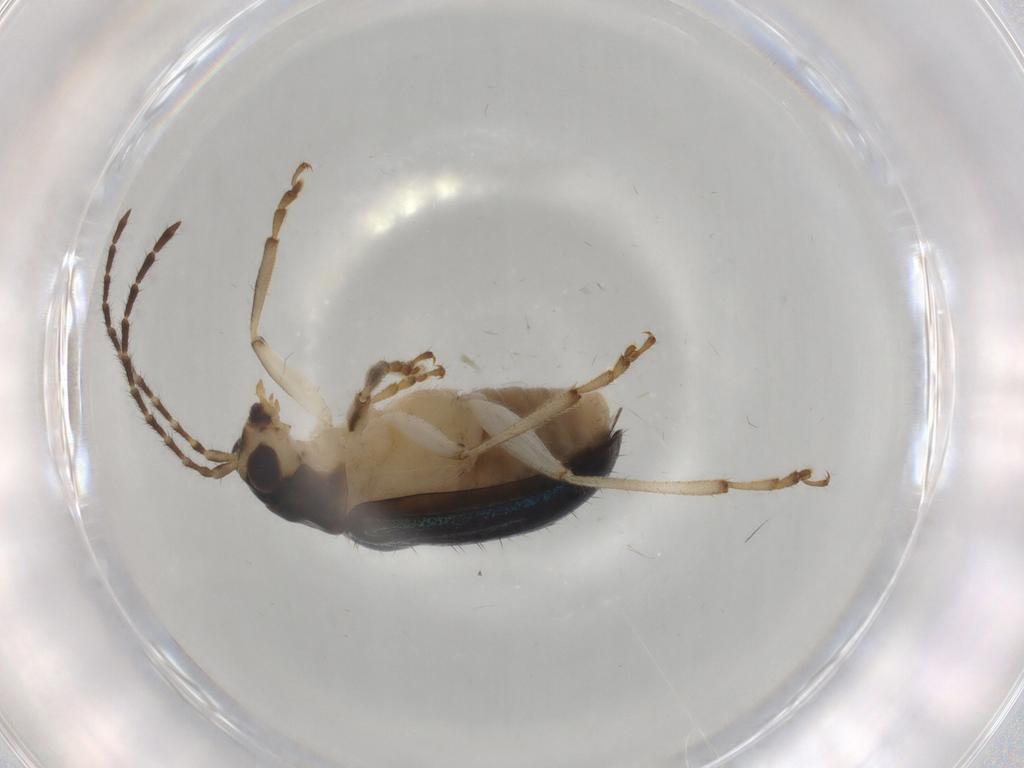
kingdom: Animalia
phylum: Arthropoda
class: Insecta
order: Coleoptera
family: Chrysomelidae
